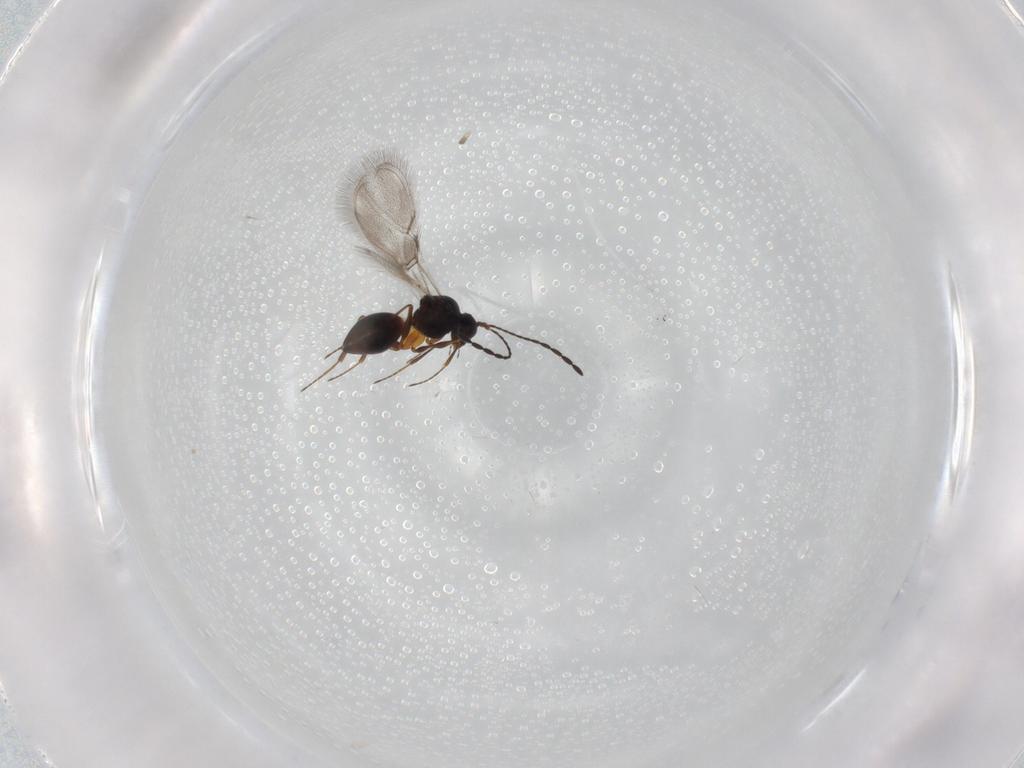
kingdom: Animalia
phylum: Arthropoda
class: Insecta
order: Hymenoptera
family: Figitidae
